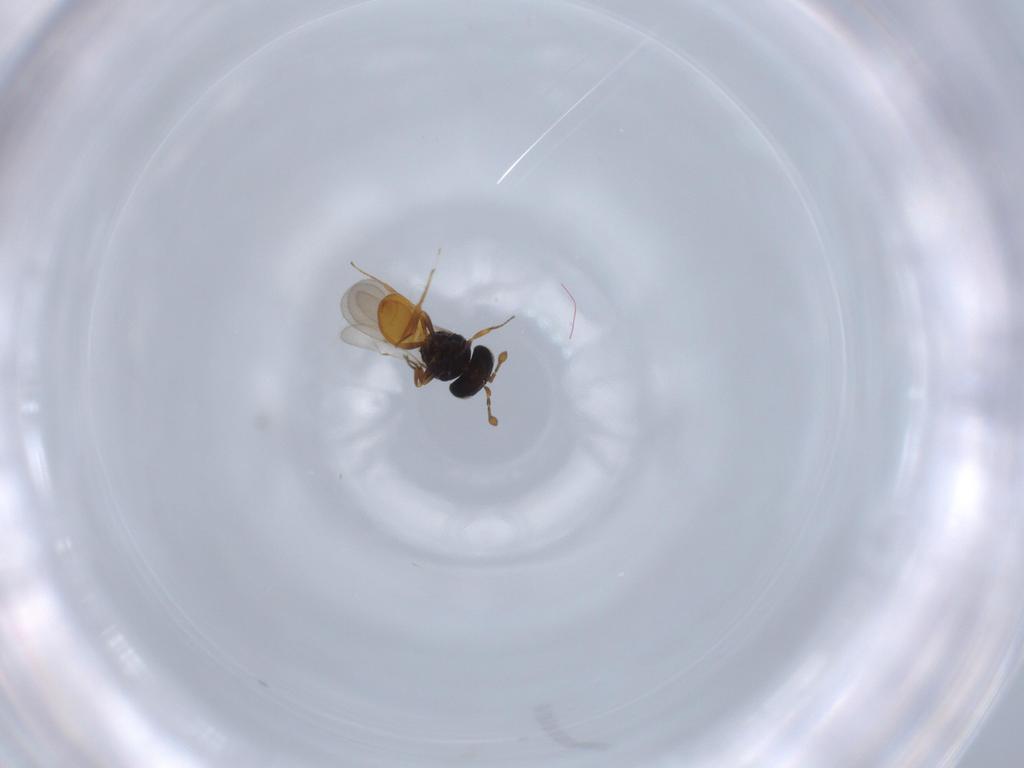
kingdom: Animalia
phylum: Arthropoda
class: Insecta
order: Hymenoptera
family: Scelionidae
